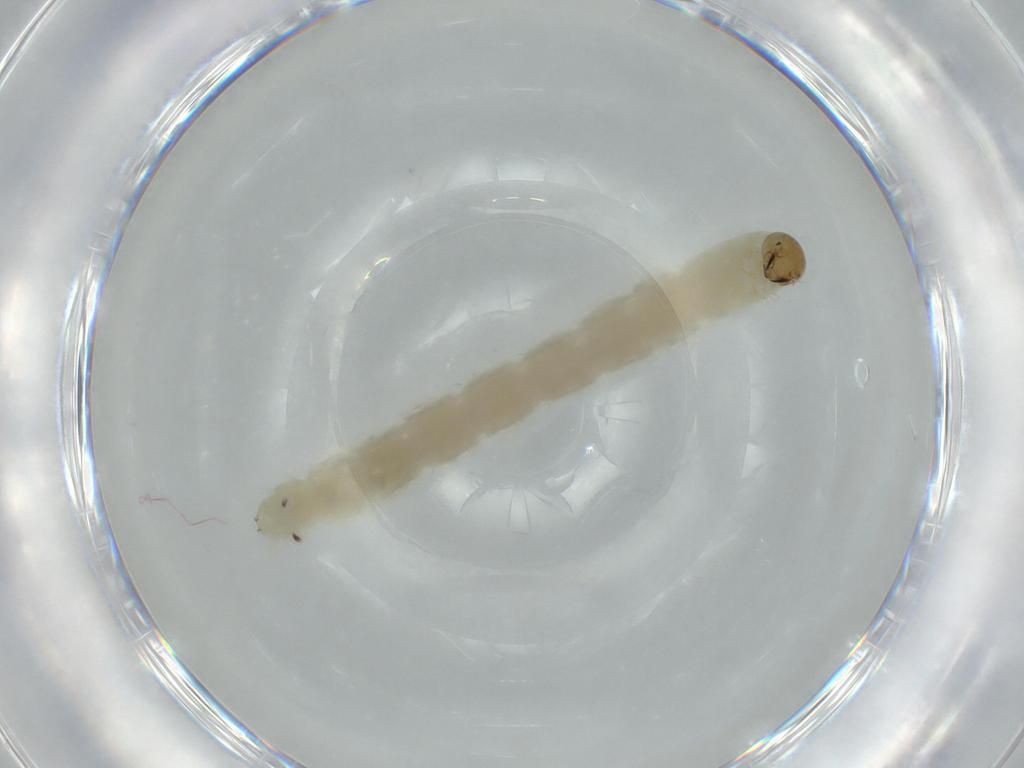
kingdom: Animalia
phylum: Arthropoda
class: Insecta
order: Diptera
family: Chironomidae
